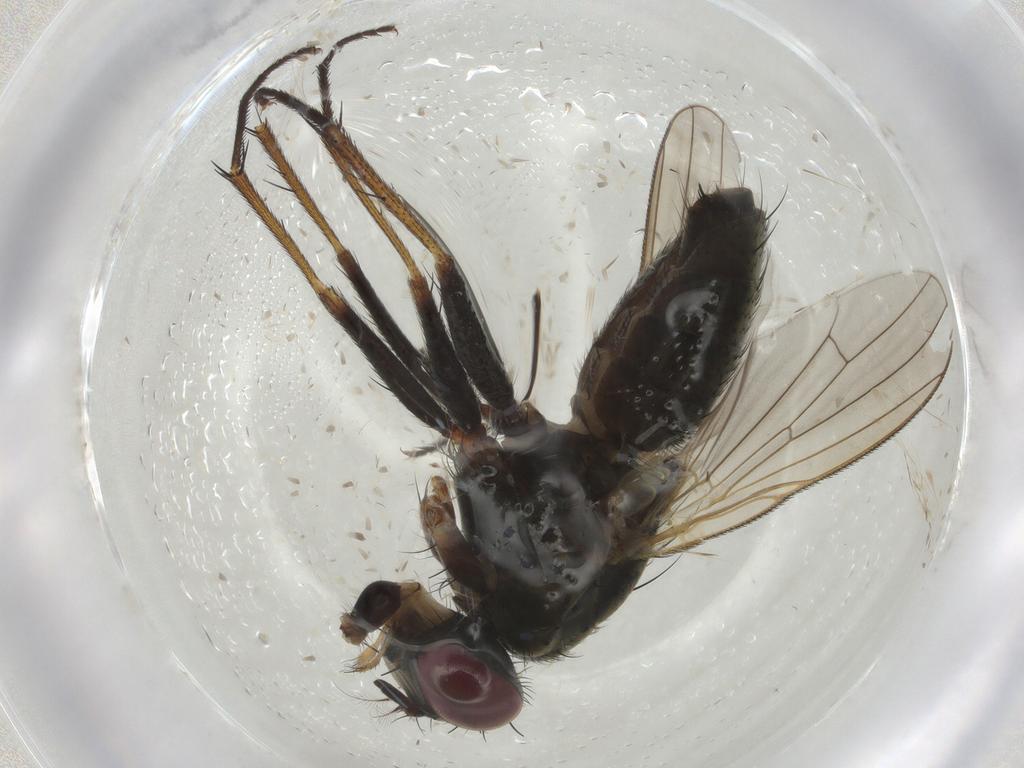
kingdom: Animalia
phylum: Arthropoda
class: Insecta
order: Diptera
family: Muscidae
